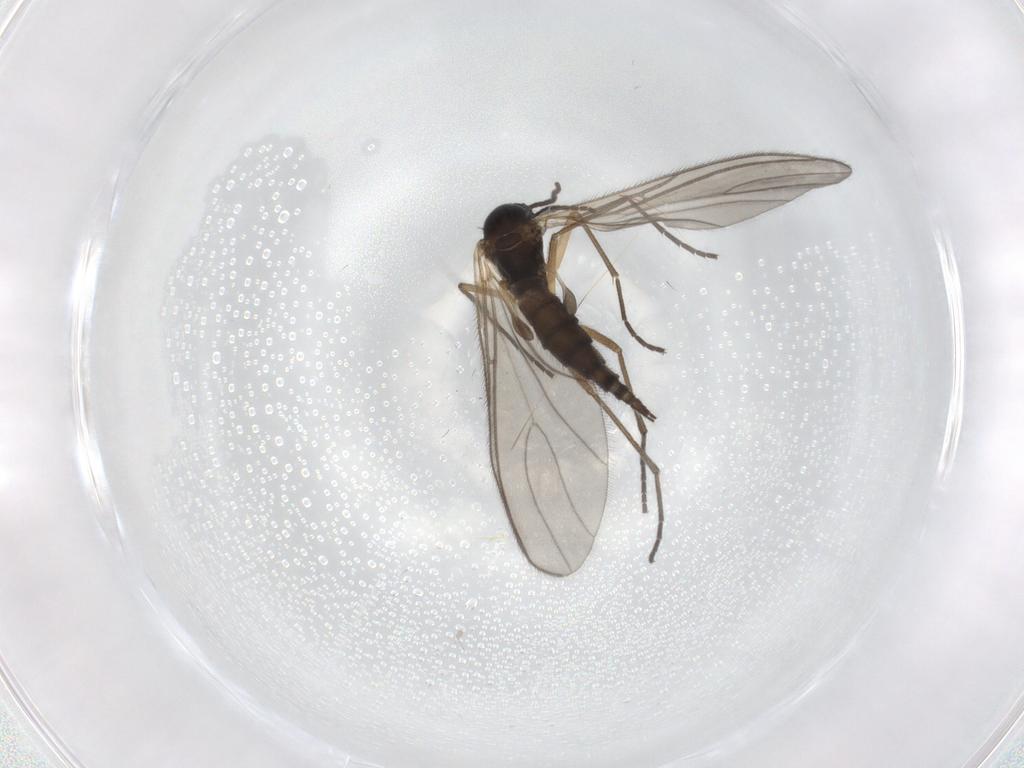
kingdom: Animalia
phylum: Arthropoda
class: Insecta
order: Diptera
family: Sciaridae
